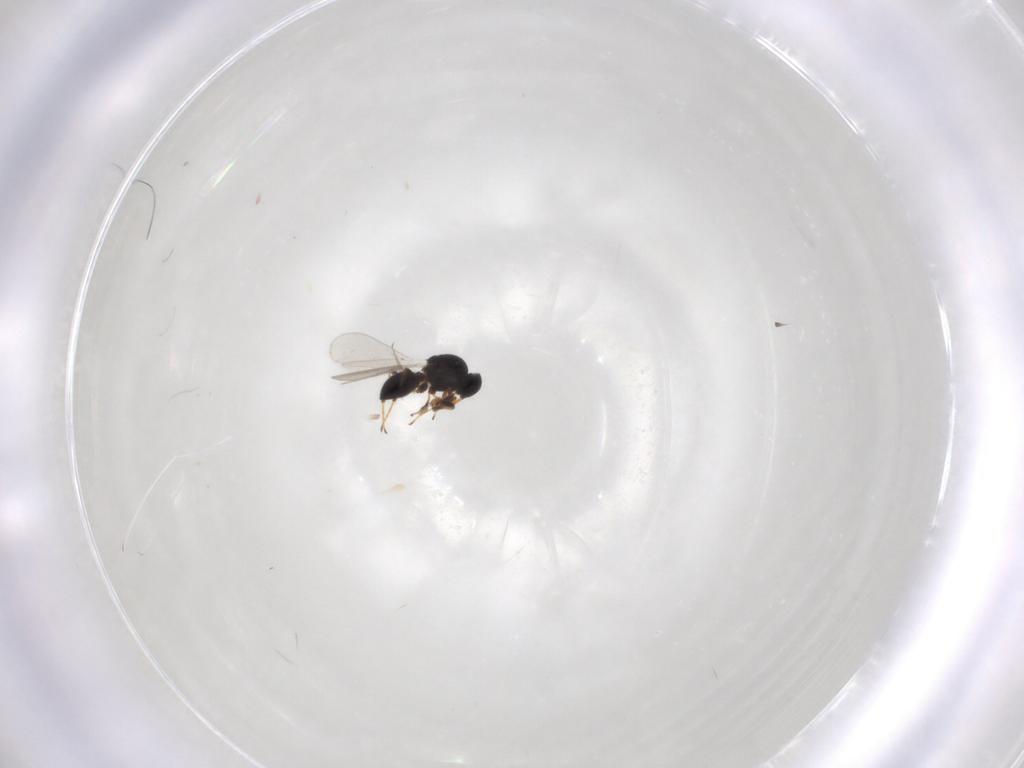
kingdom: Animalia
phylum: Arthropoda
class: Insecta
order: Hymenoptera
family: Platygastridae
